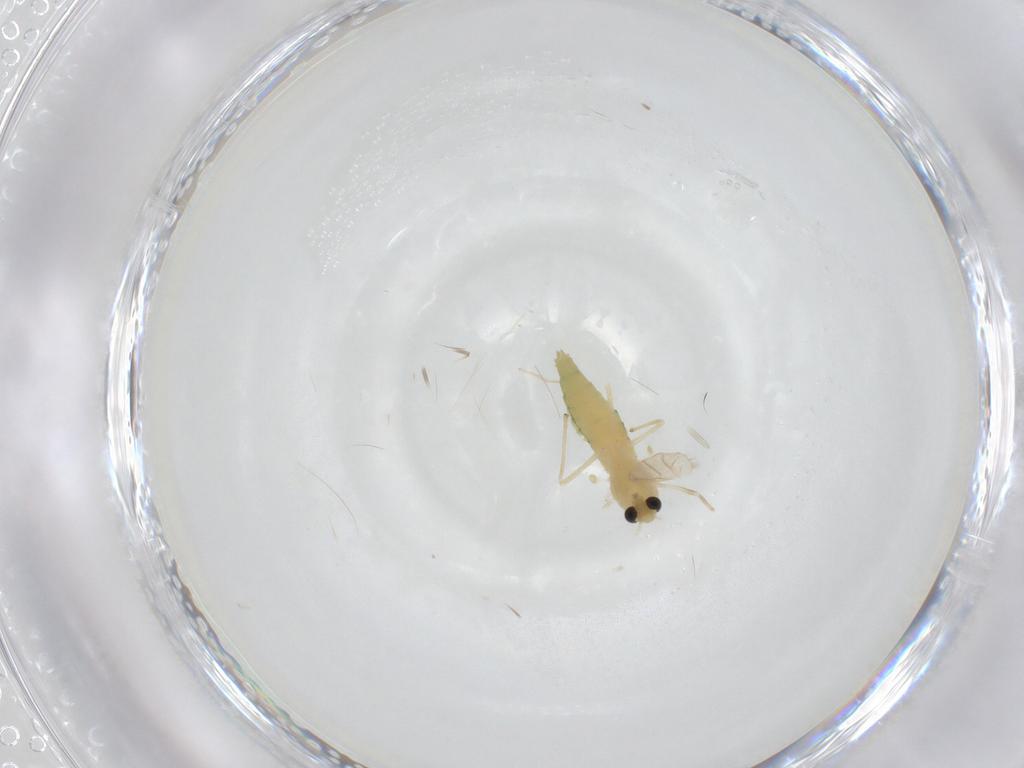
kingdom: Animalia
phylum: Arthropoda
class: Insecta
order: Diptera
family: Chironomidae
